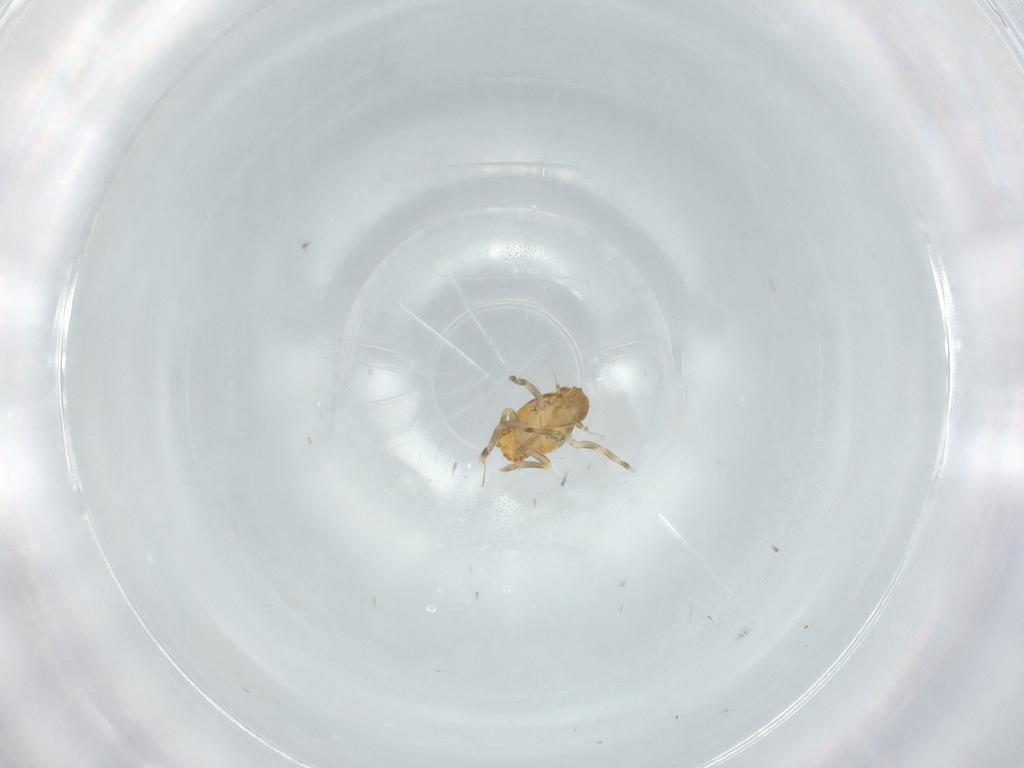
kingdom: Animalia
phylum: Arthropoda
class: Insecta
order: Hemiptera
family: Flatidae
